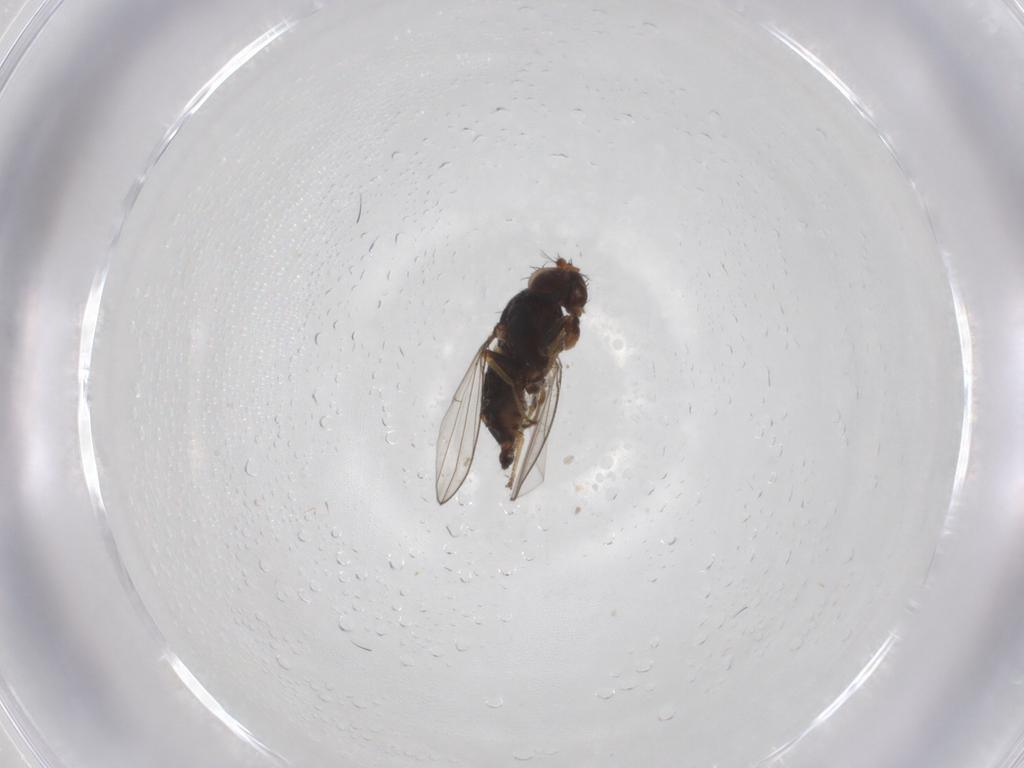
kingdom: Animalia
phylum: Arthropoda
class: Insecta
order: Diptera
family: Ephydridae
